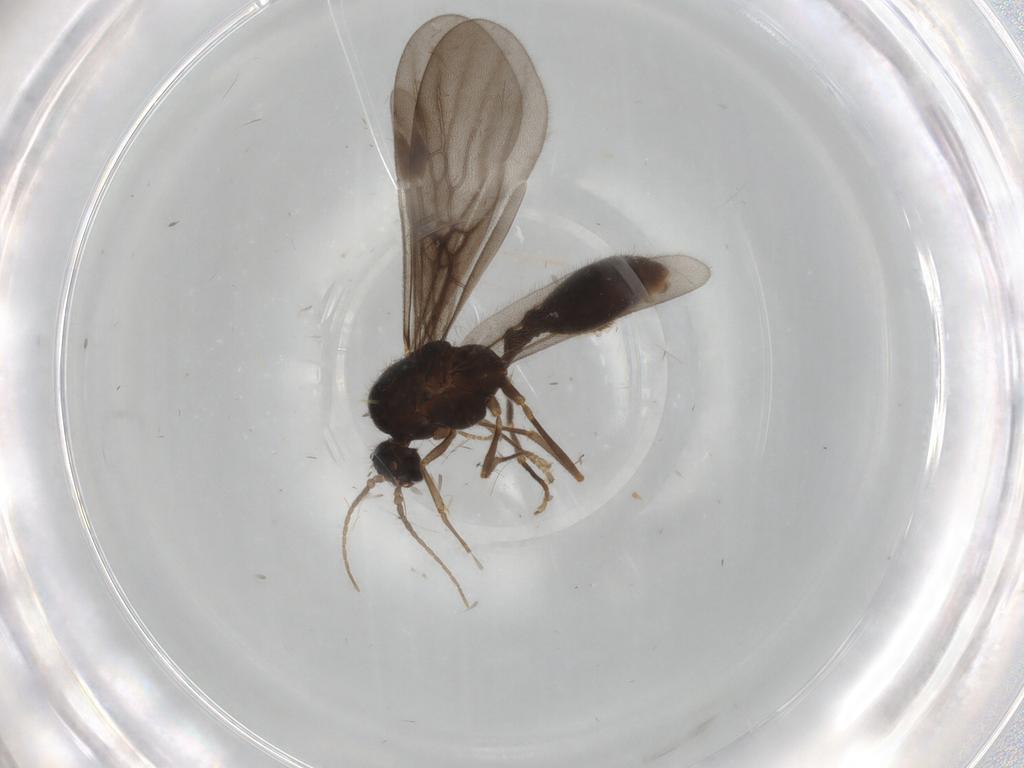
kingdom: Animalia
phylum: Arthropoda
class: Insecta
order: Hymenoptera
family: Formicidae
